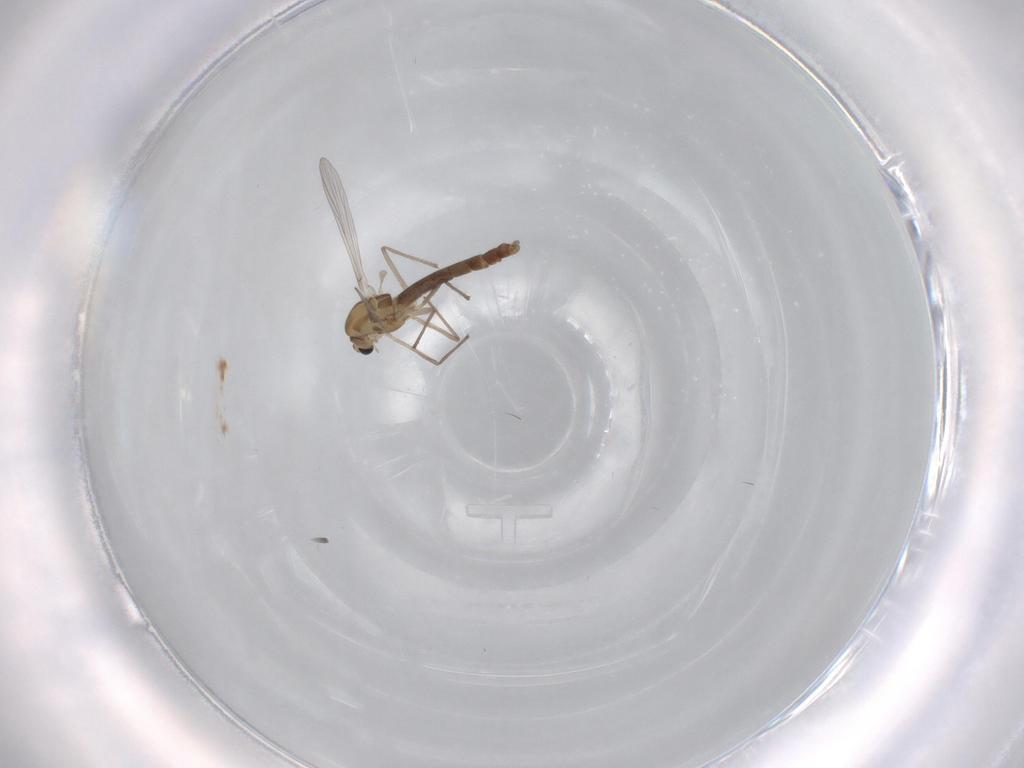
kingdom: Animalia
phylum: Arthropoda
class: Insecta
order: Diptera
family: Chironomidae
